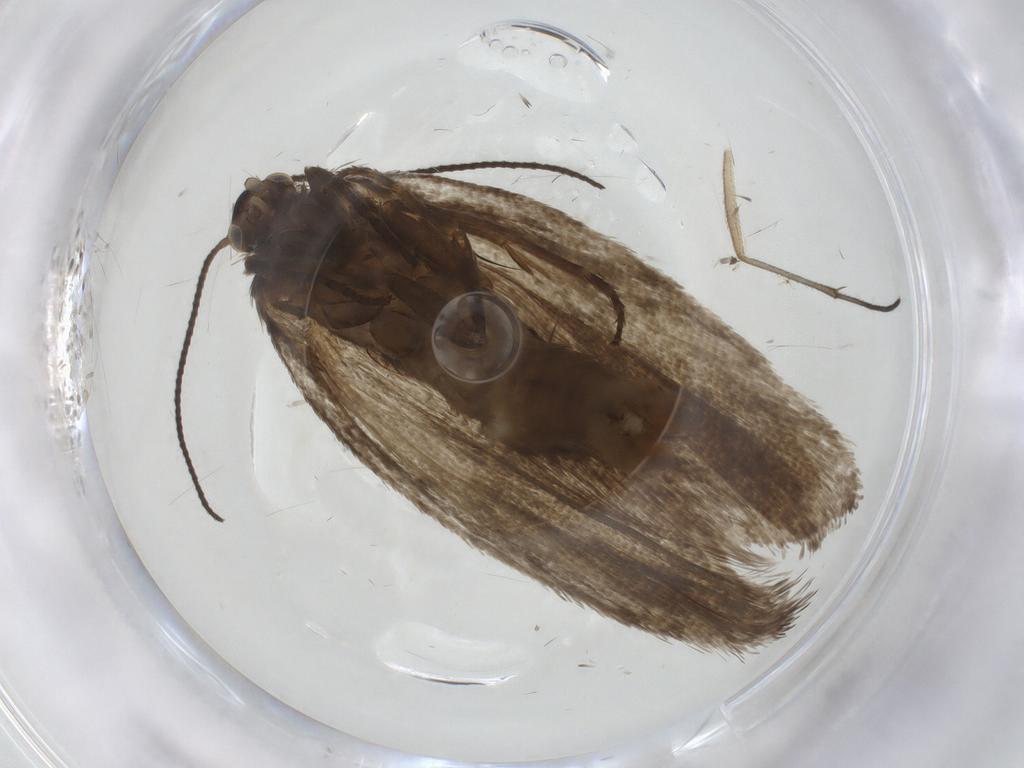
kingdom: Animalia
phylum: Arthropoda
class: Insecta
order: Lepidoptera
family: Tortricidae
